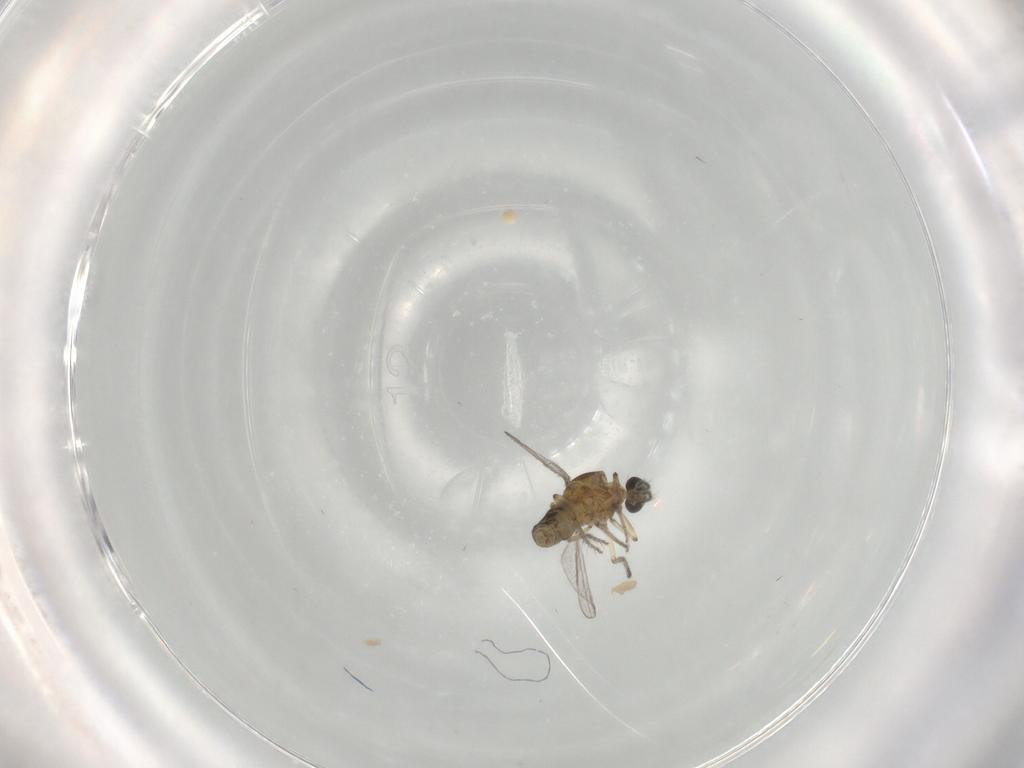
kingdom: Animalia
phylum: Arthropoda
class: Insecta
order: Diptera
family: Ceratopogonidae
